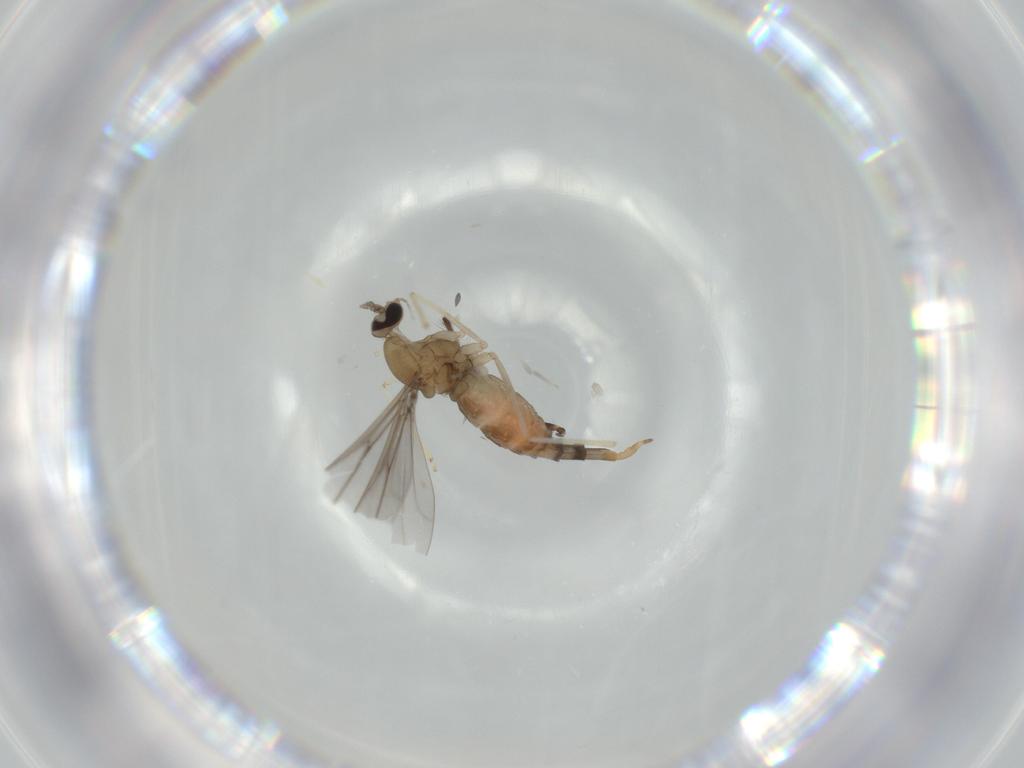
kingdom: Animalia
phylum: Arthropoda
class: Insecta
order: Diptera
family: Chironomidae
